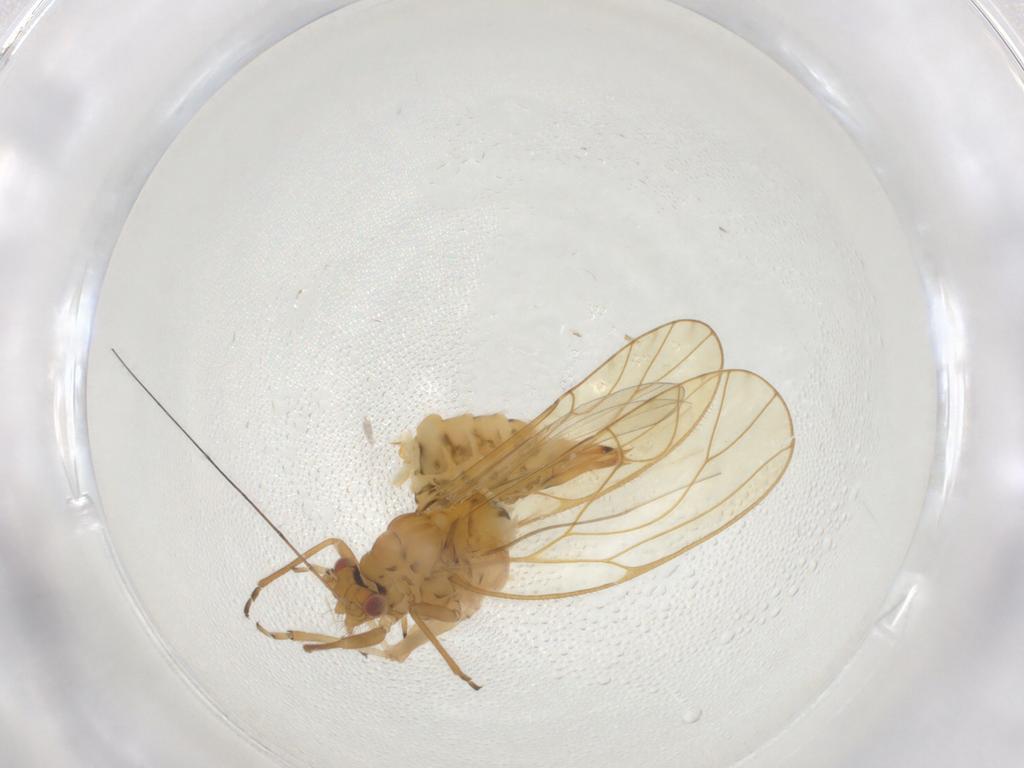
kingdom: Animalia
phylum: Arthropoda
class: Insecta
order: Hemiptera
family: Psyllidae
